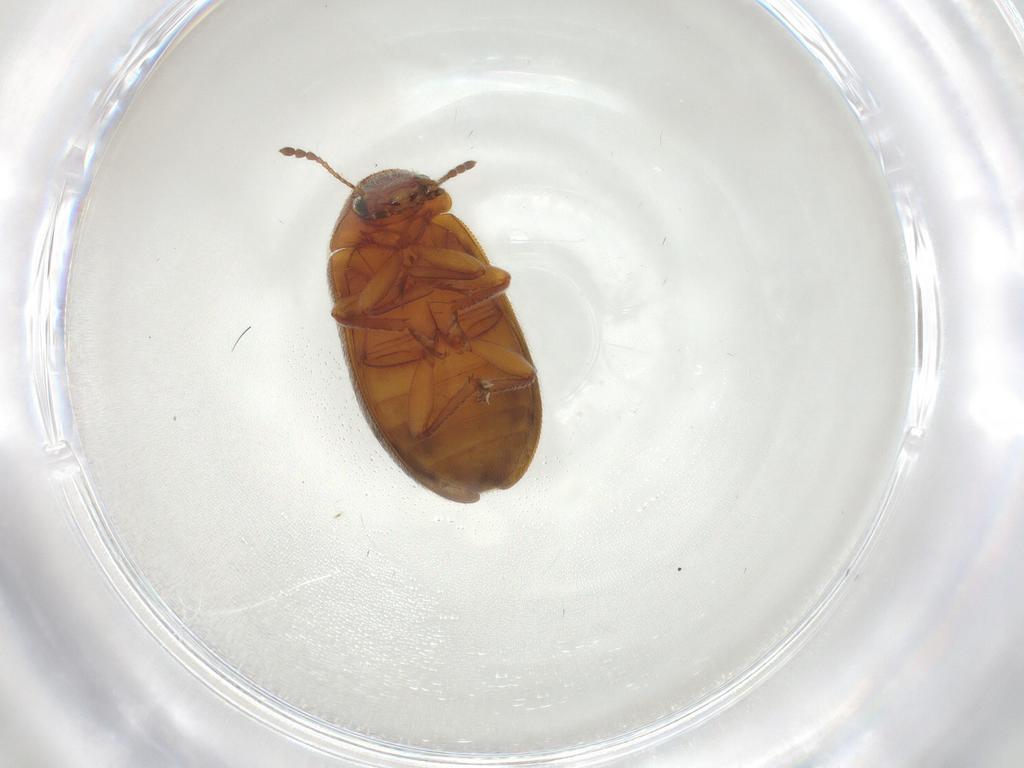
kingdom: Animalia
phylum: Arthropoda
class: Insecta
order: Coleoptera
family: Byturidae
